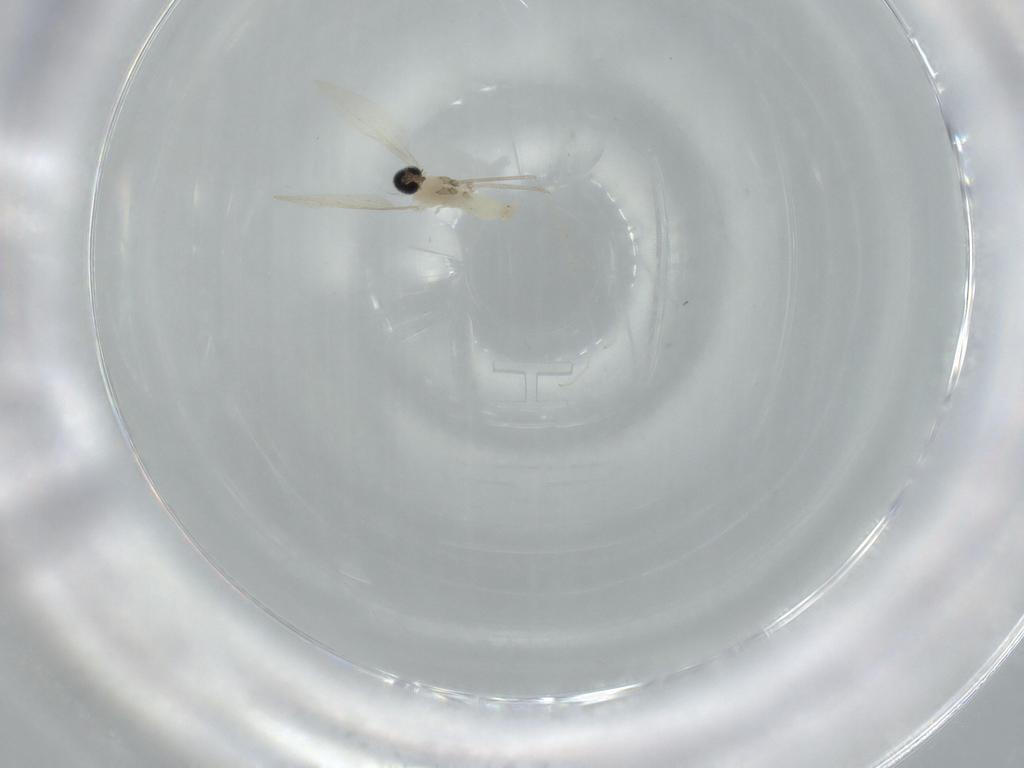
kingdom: Animalia
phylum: Arthropoda
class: Insecta
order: Diptera
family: Cecidomyiidae
